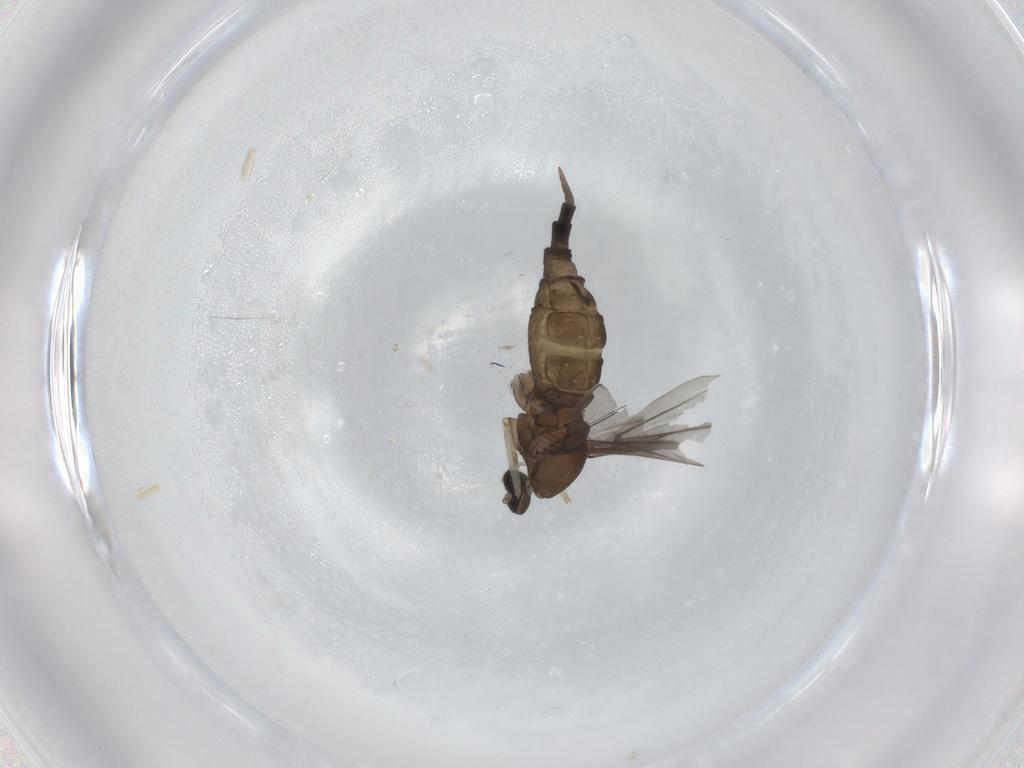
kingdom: Animalia
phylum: Arthropoda
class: Insecta
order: Diptera
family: Cecidomyiidae
